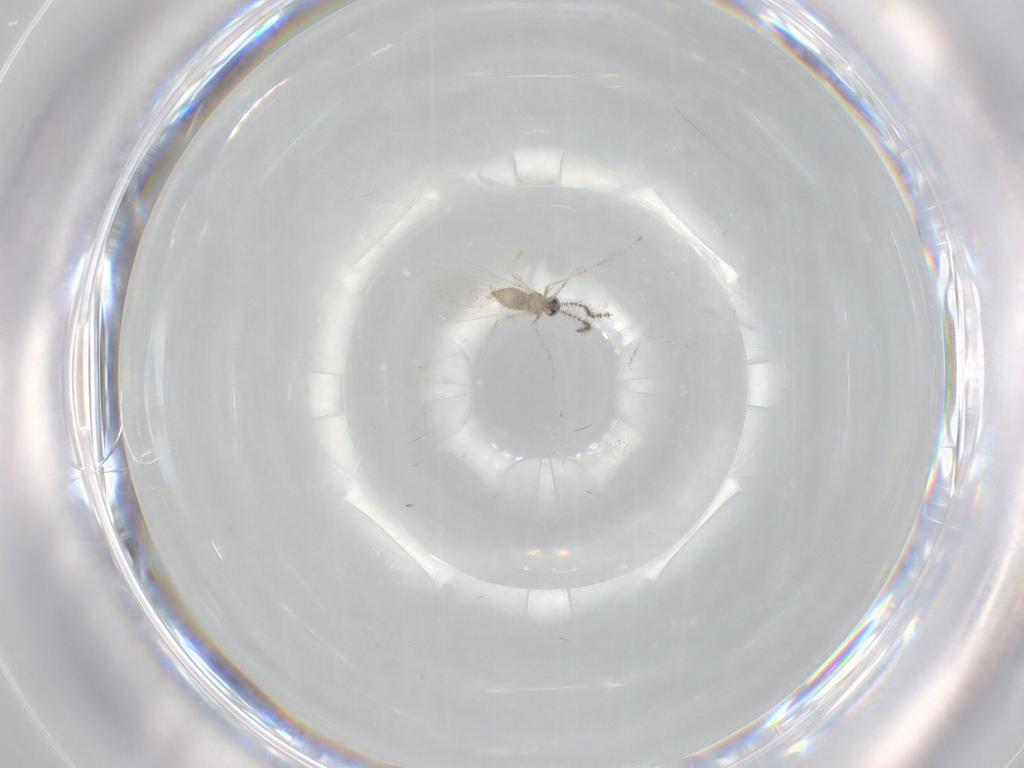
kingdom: Animalia
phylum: Arthropoda
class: Insecta
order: Diptera
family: Cecidomyiidae
